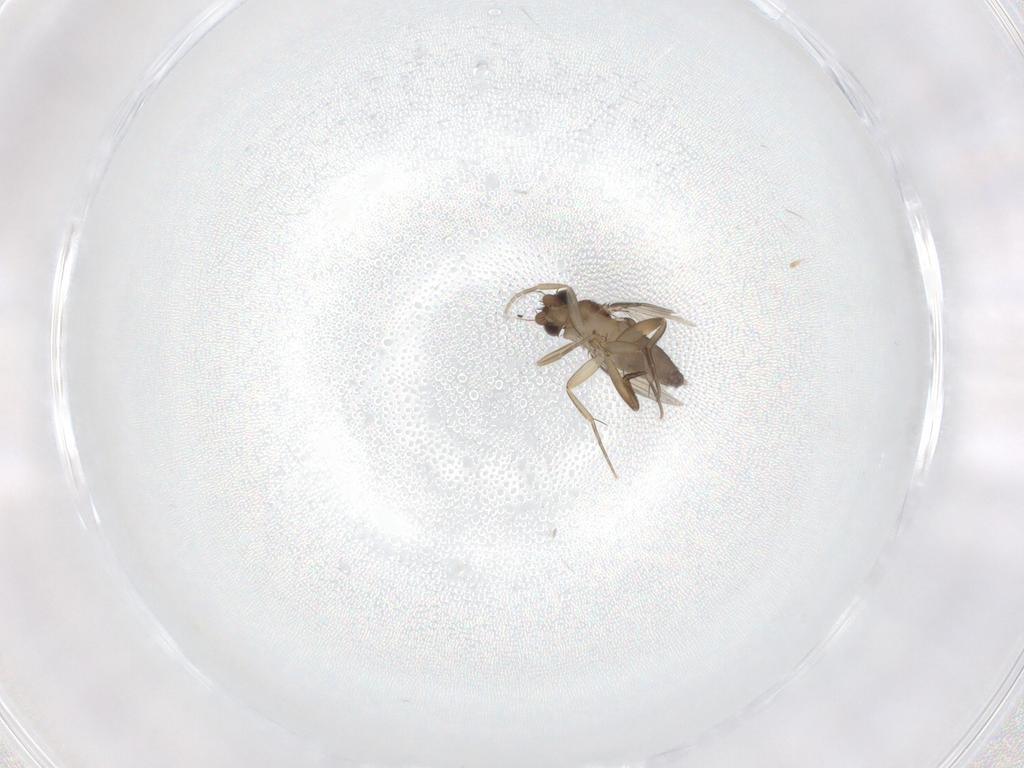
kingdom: Animalia
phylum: Arthropoda
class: Insecta
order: Diptera
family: Phoridae
